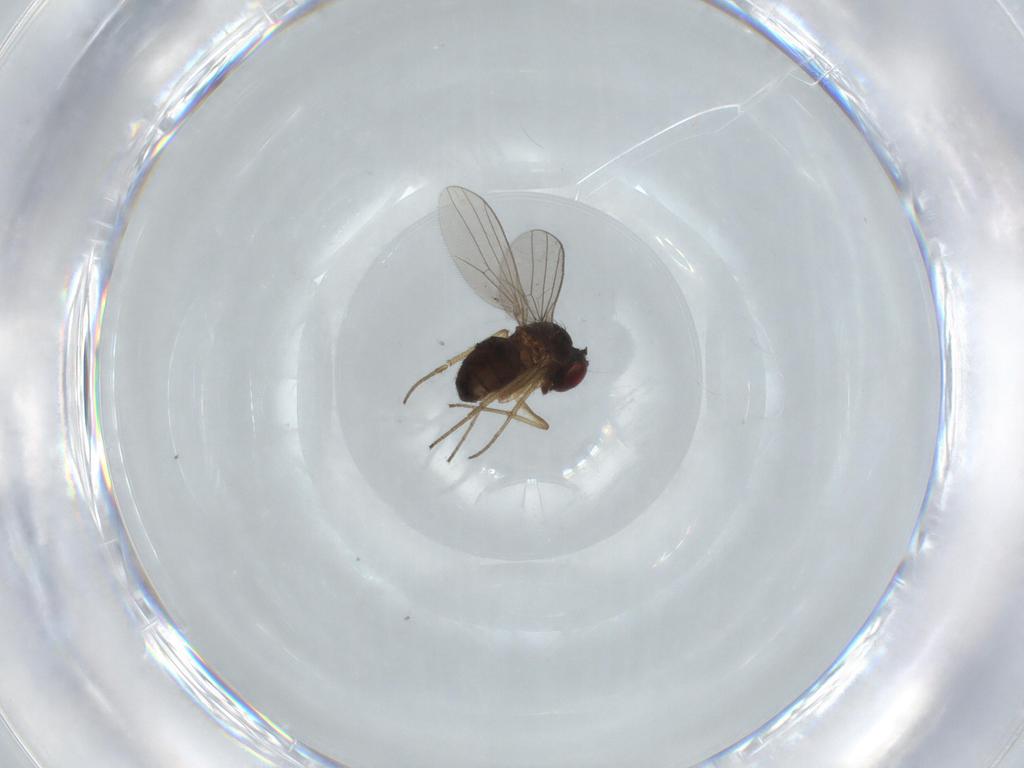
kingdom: Animalia
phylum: Arthropoda
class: Insecta
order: Diptera
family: Dolichopodidae
